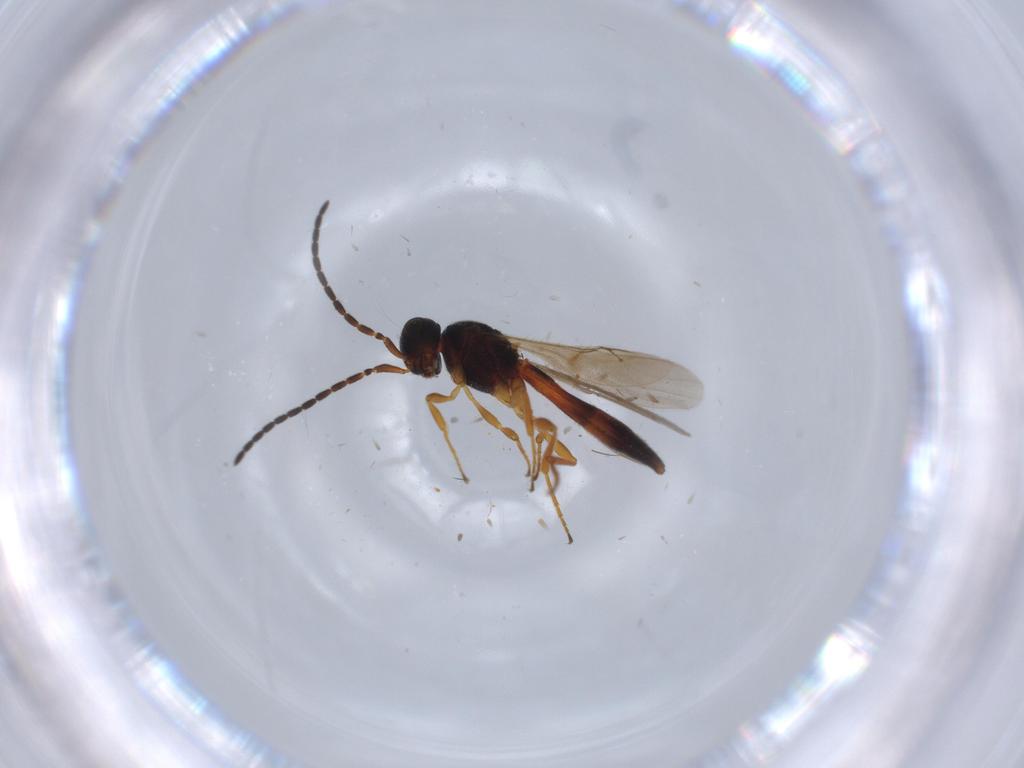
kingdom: Animalia
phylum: Arthropoda
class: Insecta
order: Hymenoptera
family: Scelionidae
